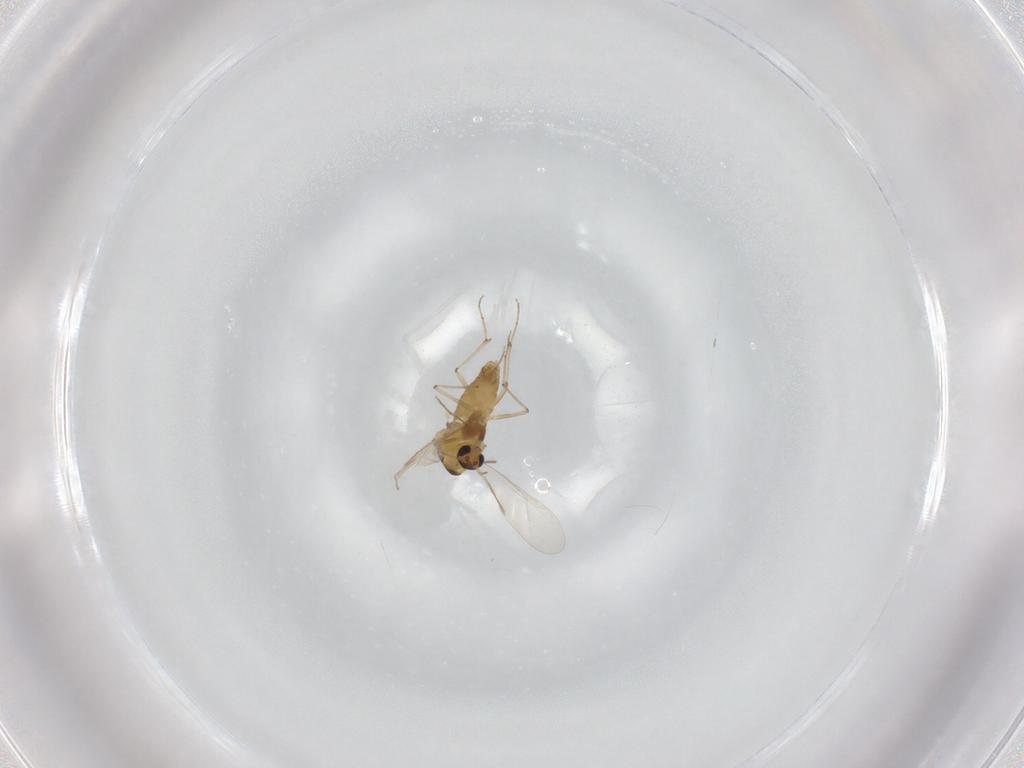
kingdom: Animalia
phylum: Arthropoda
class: Insecta
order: Diptera
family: Chironomidae
